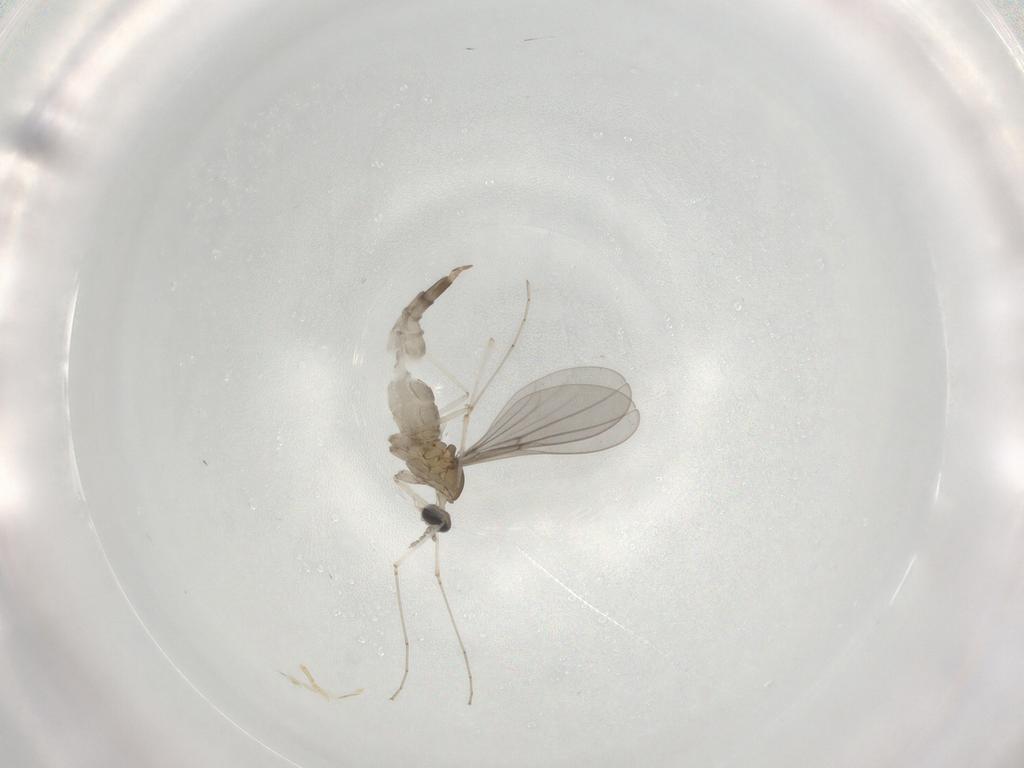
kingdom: Animalia
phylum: Arthropoda
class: Insecta
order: Diptera
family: Cecidomyiidae
